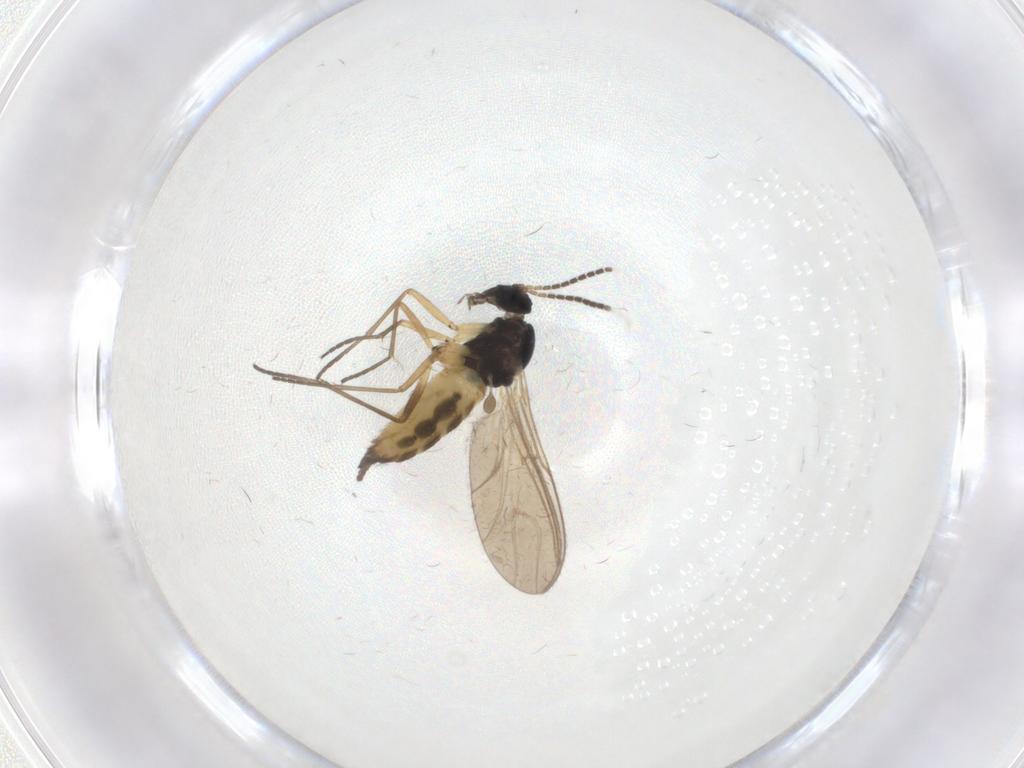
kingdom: Animalia
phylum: Arthropoda
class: Insecta
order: Diptera
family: Sciaridae
